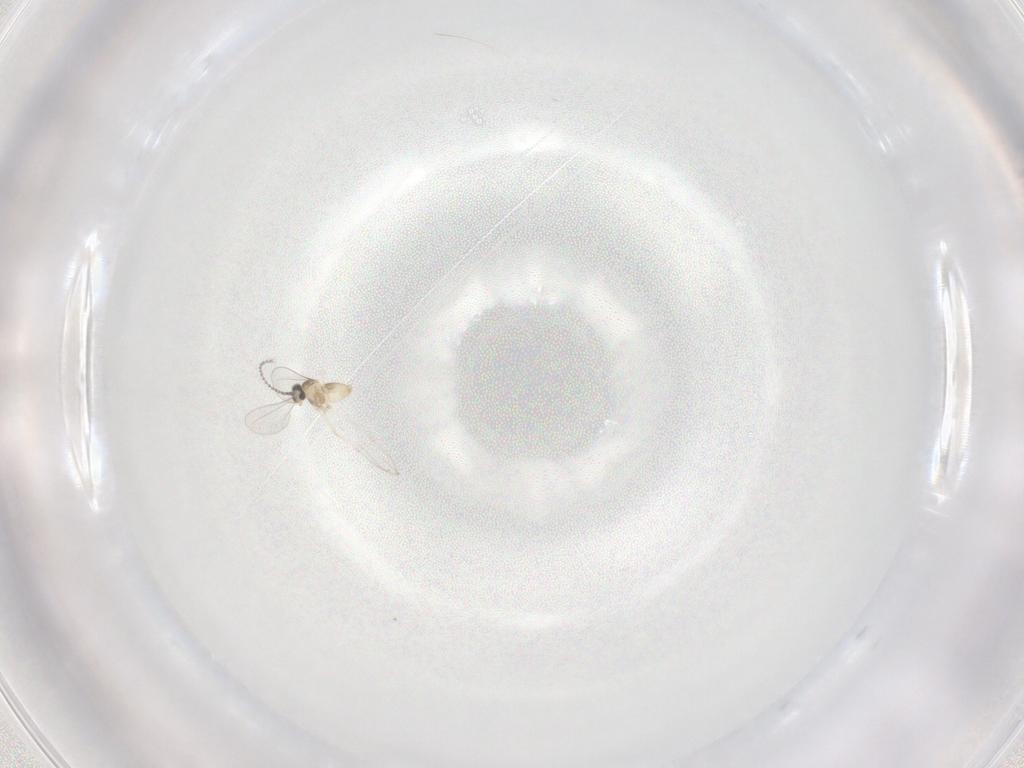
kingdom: Animalia
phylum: Arthropoda
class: Insecta
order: Diptera
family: Cecidomyiidae
